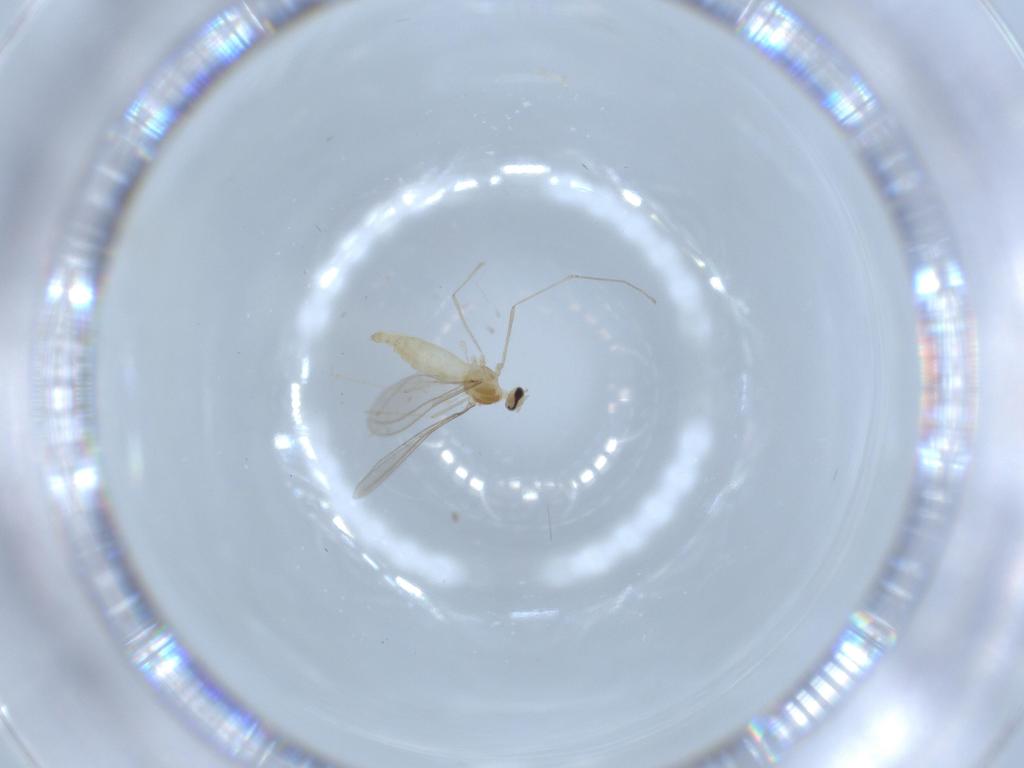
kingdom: Animalia
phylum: Arthropoda
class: Insecta
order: Diptera
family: Cecidomyiidae
